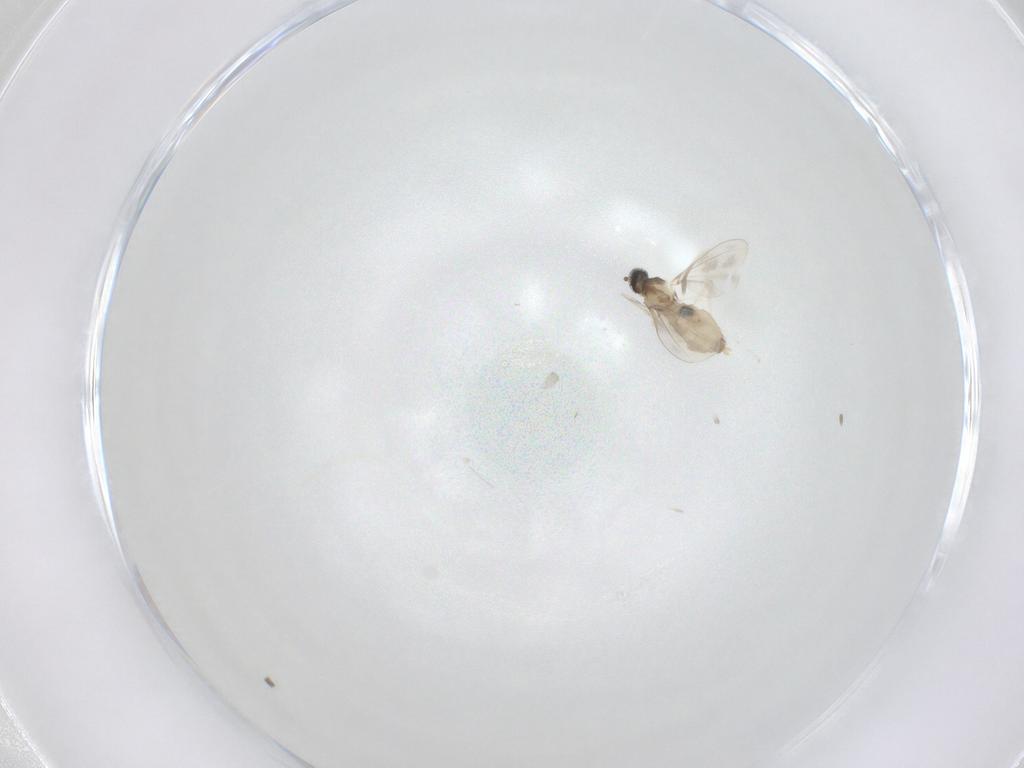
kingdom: Animalia
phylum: Arthropoda
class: Insecta
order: Diptera
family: Cecidomyiidae
